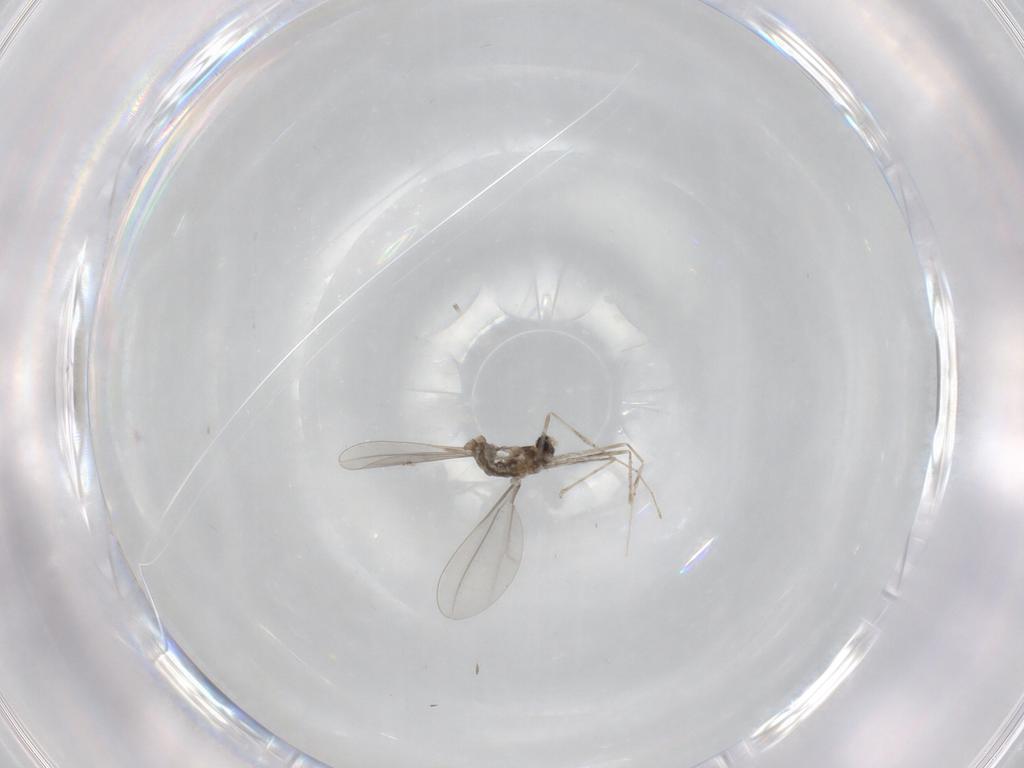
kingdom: Animalia
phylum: Arthropoda
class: Insecta
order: Diptera
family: Cecidomyiidae
